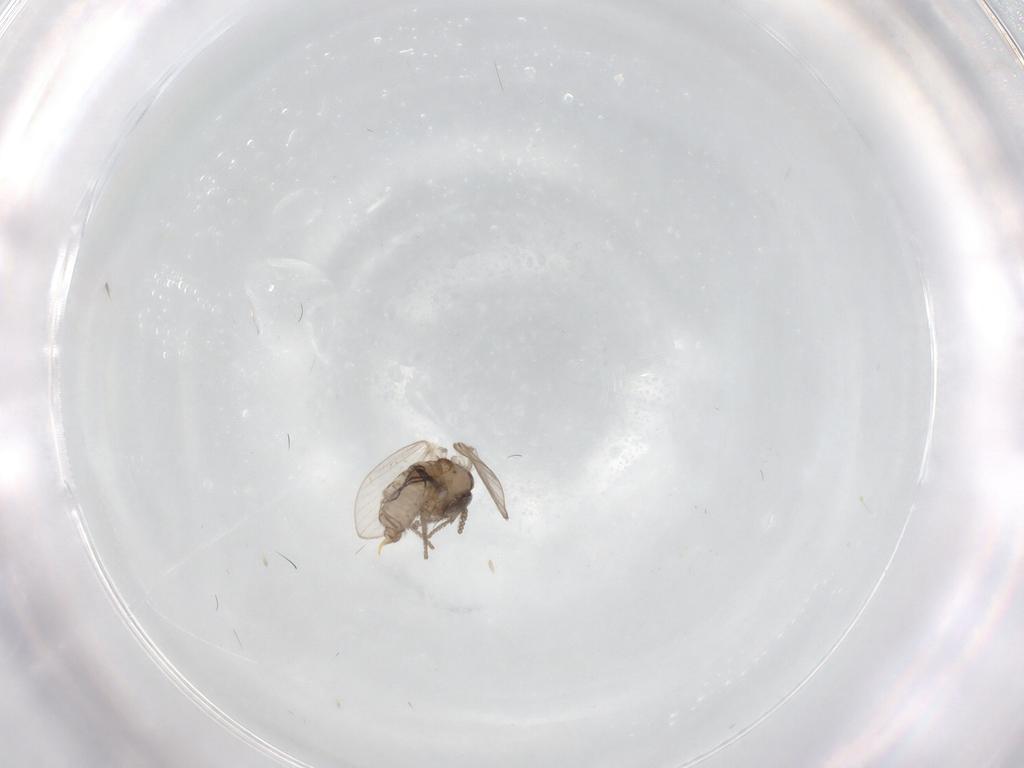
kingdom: Animalia
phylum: Arthropoda
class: Insecta
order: Diptera
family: Psychodidae
